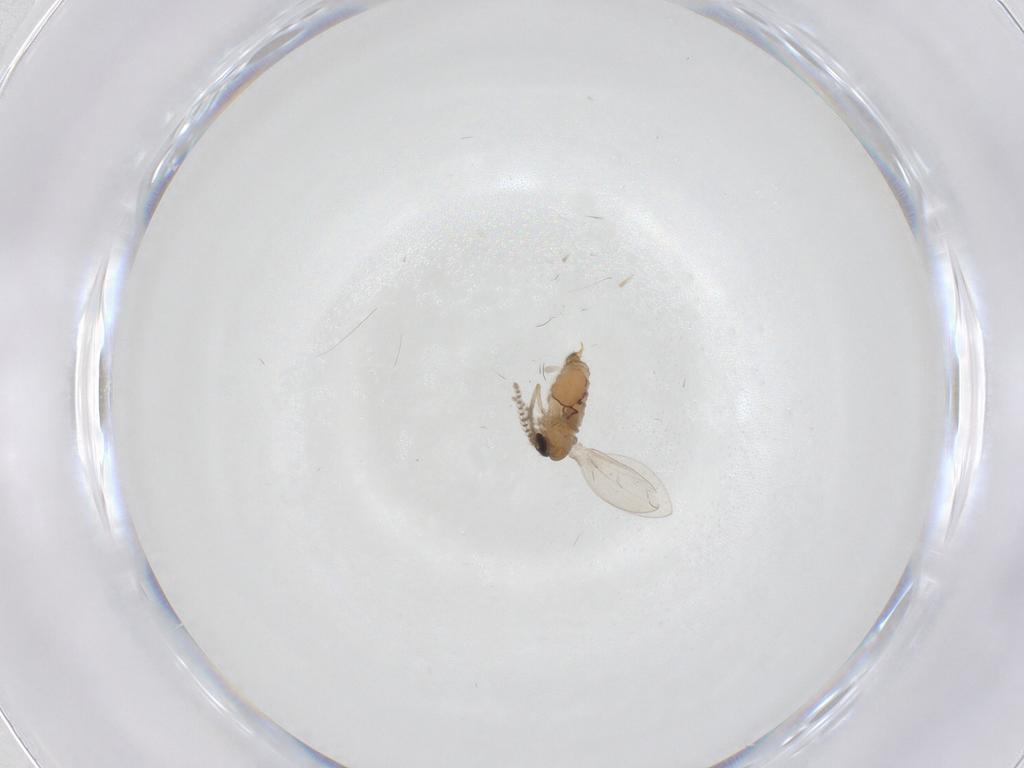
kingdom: Animalia
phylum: Arthropoda
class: Insecta
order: Diptera
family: Psychodidae
